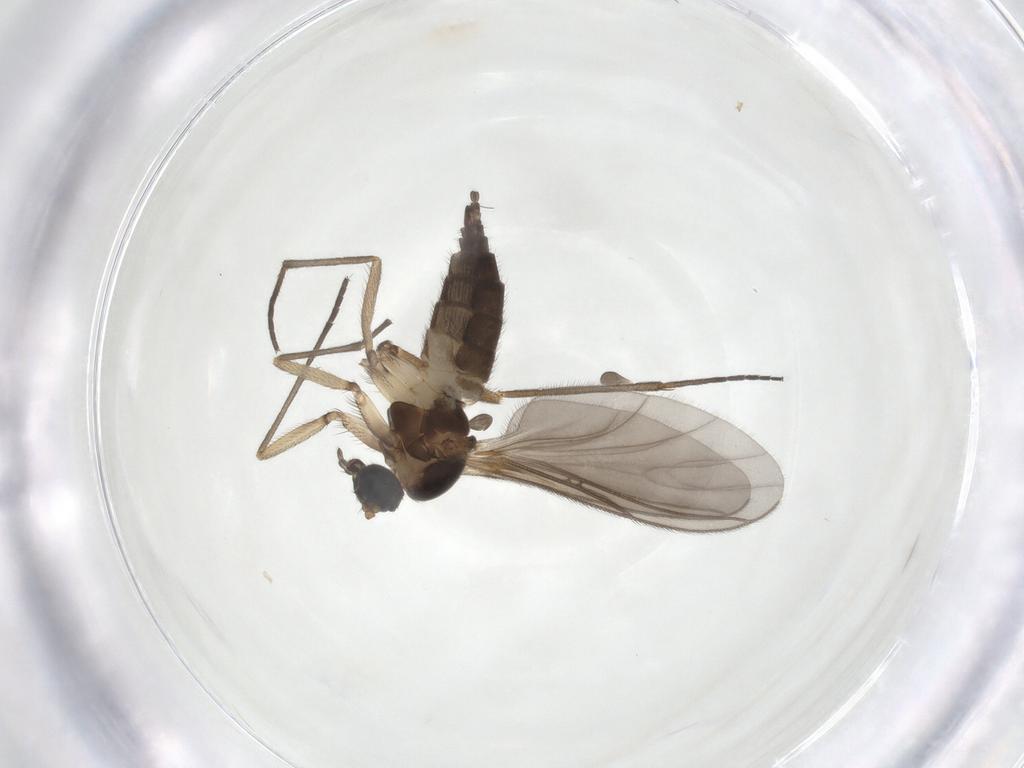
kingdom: Animalia
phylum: Arthropoda
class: Insecta
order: Diptera
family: Sciaridae
